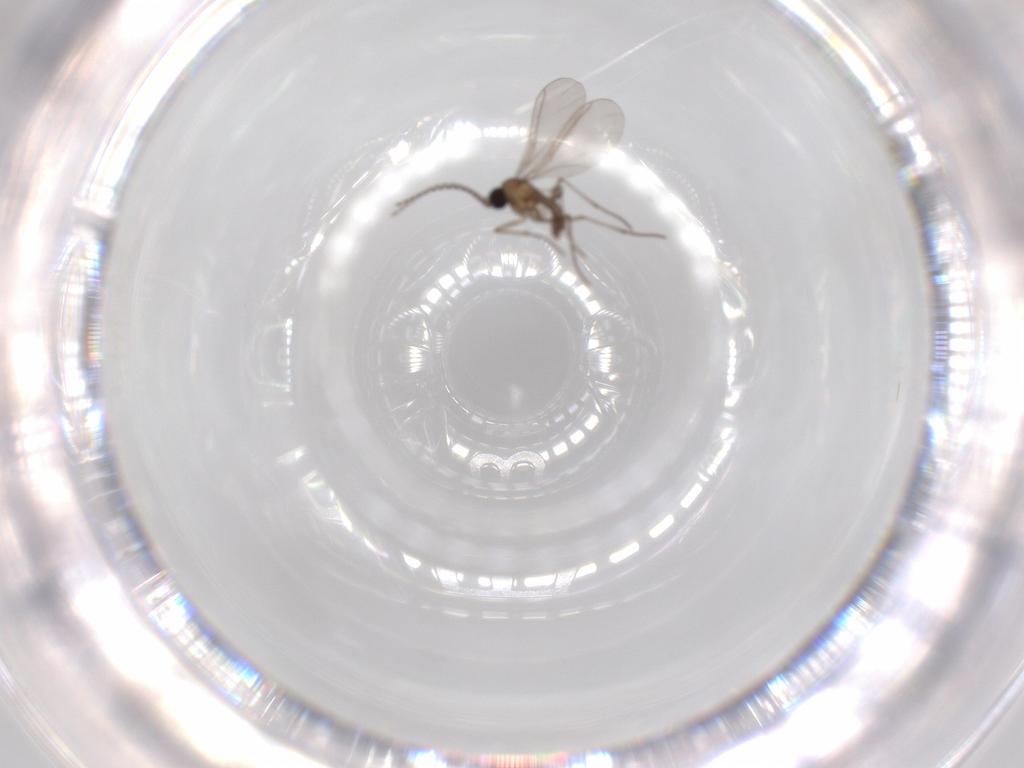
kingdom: Animalia
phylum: Arthropoda
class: Insecta
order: Diptera
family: Sciaridae
